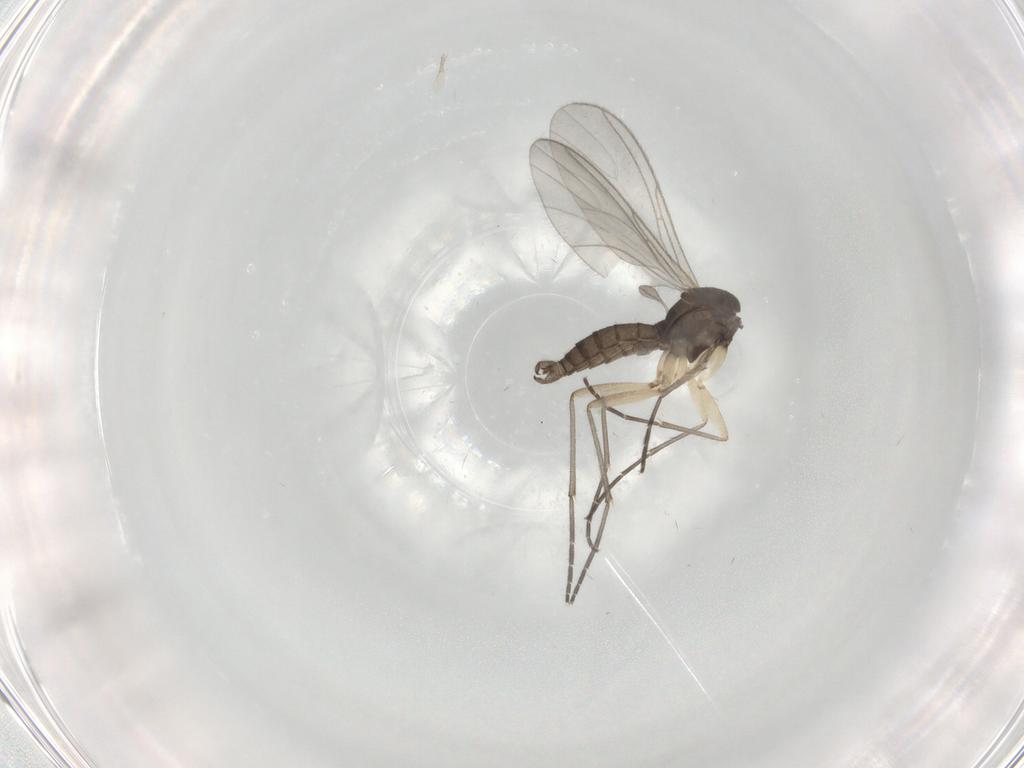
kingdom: Animalia
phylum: Arthropoda
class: Insecta
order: Diptera
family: Sciaridae
